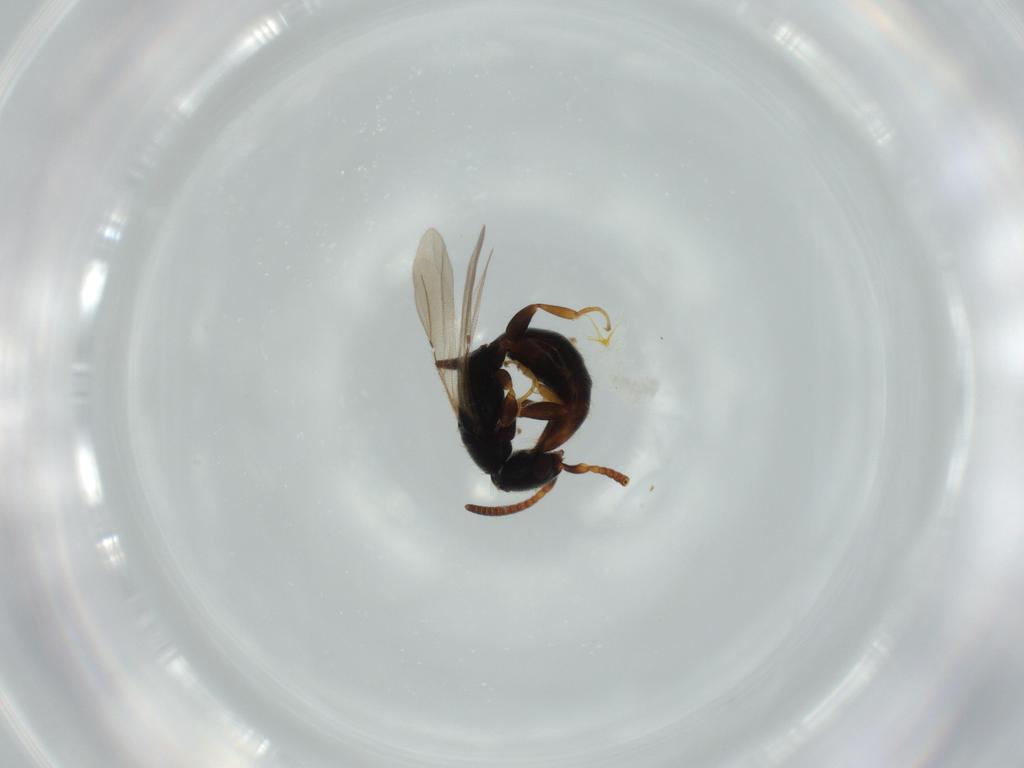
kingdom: Animalia
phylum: Arthropoda
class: Insecta
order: Hymenoptera
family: Bethylidae
